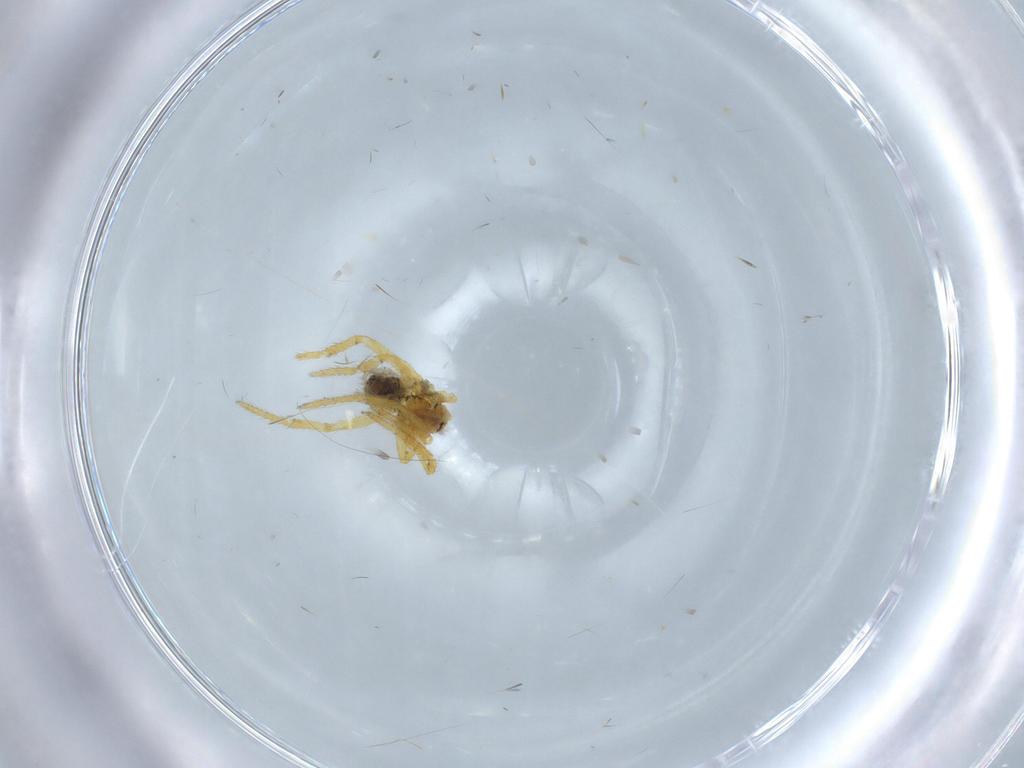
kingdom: Animalia
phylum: Arthropoda
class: Arachnida
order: Araneae
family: Theridiidae
